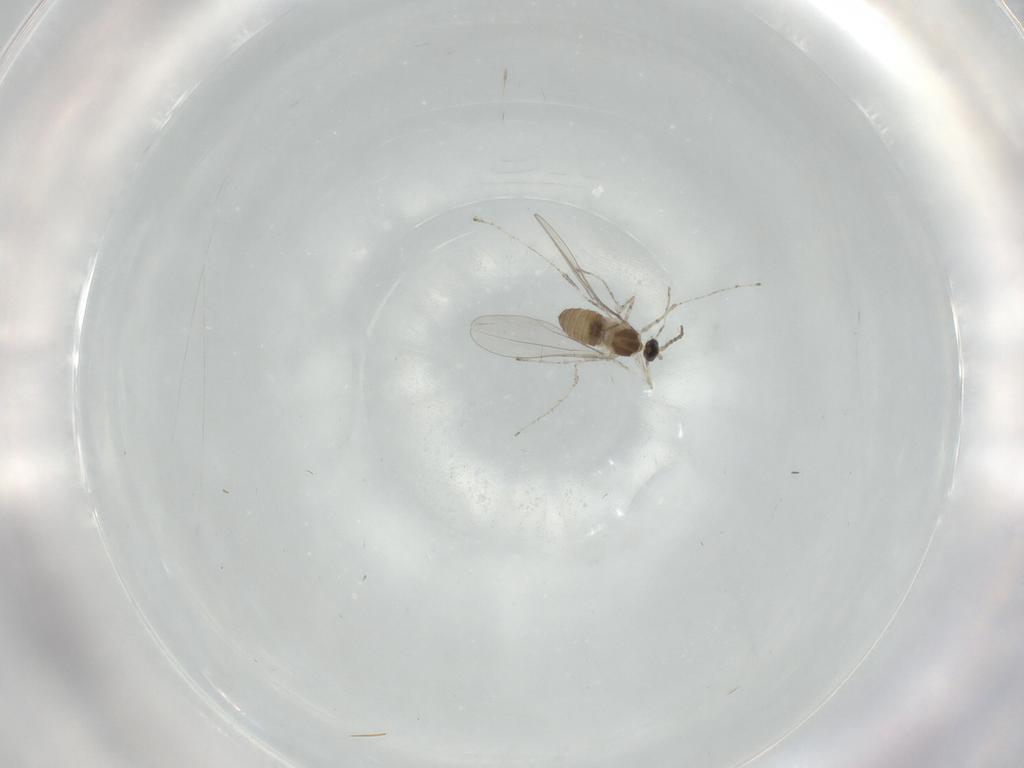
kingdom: Animalia
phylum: Arthropoda
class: Insecta
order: Diptera
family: Cecidomyiidae
